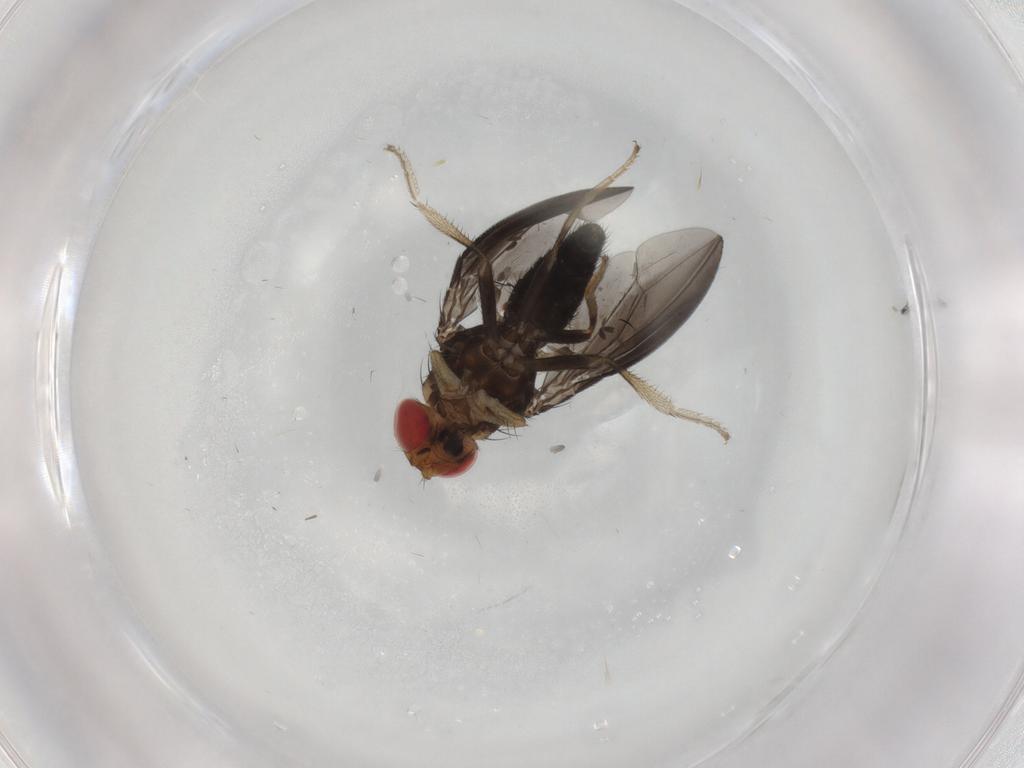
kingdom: Animalia
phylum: Arthropoda
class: Insecta
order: Diptera
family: Drosophilidae
